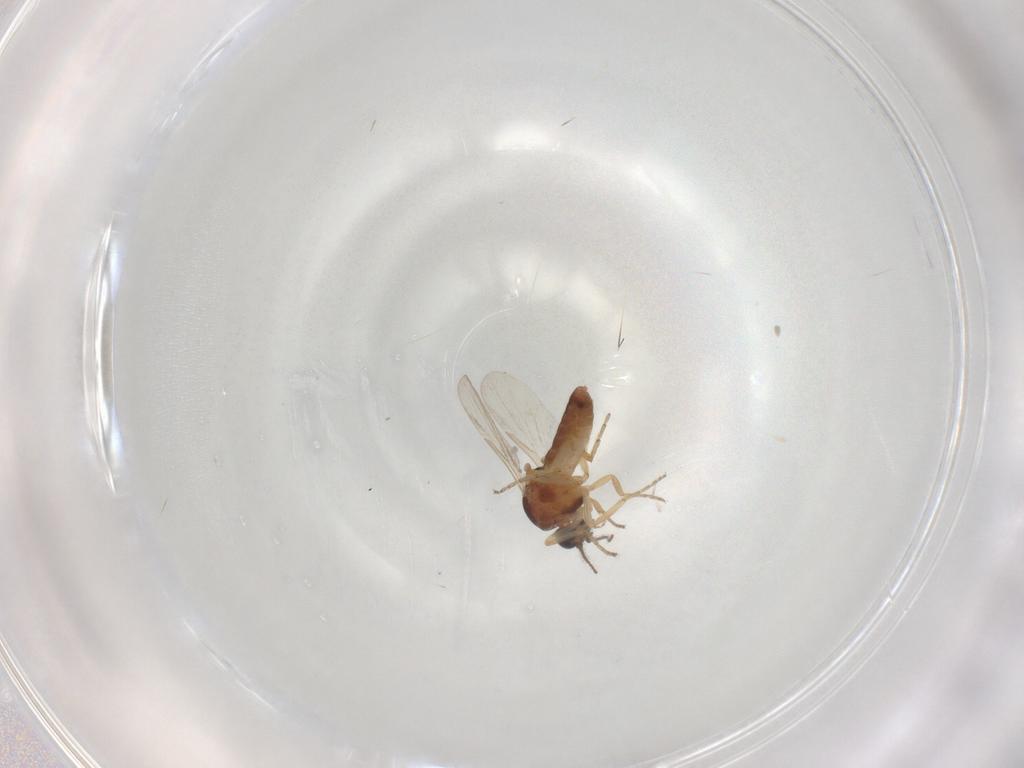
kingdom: Animalia
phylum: Arthropoda
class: Insecta
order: Diptera
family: Ceratopogonidae
